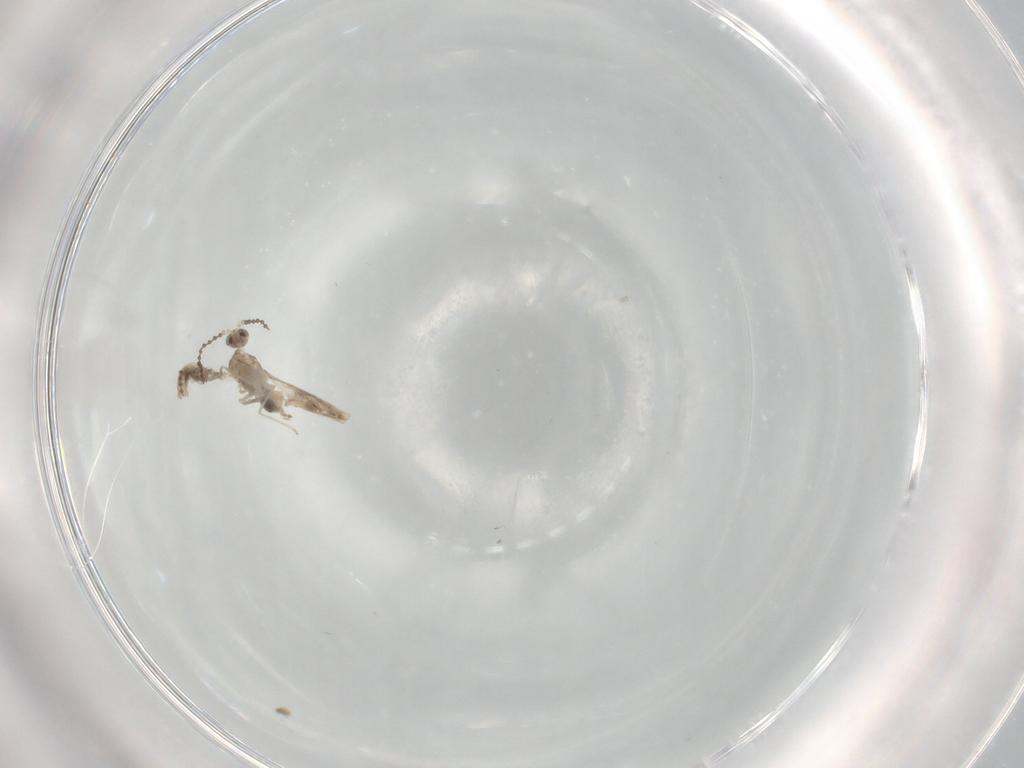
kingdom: Animalia
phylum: Arthropoda
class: Insecta
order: Diptera
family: Cecidomyiidae
